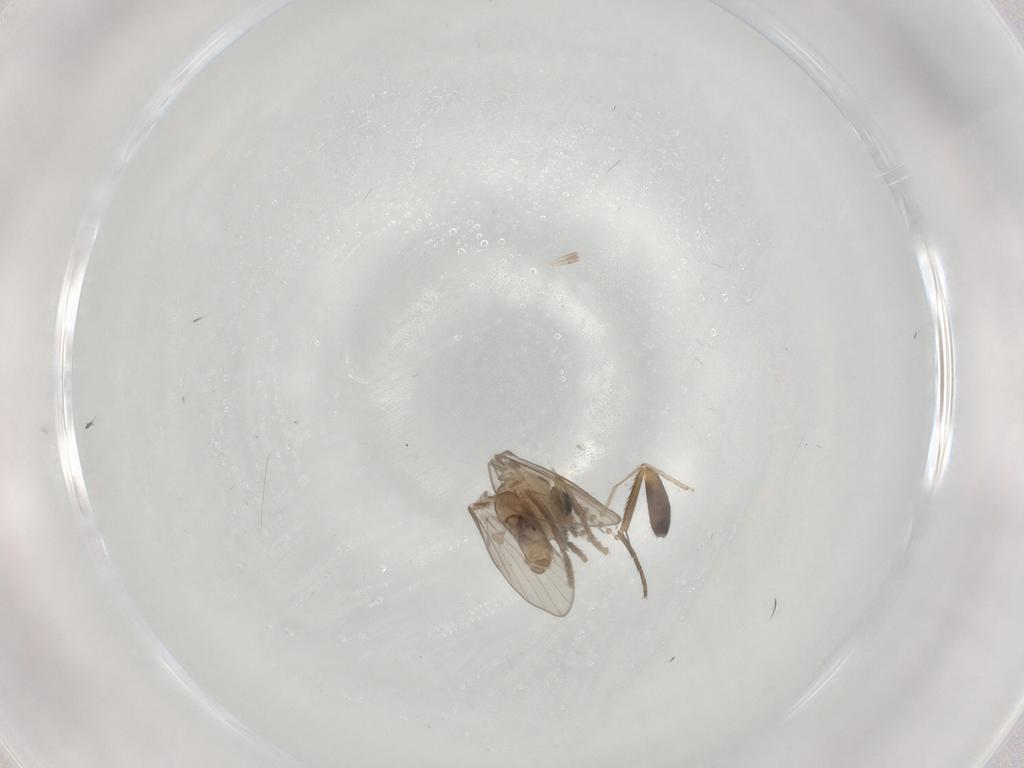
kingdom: Animalia
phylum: Arthropoda
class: Insecta
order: Diptera
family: Psychodidae
